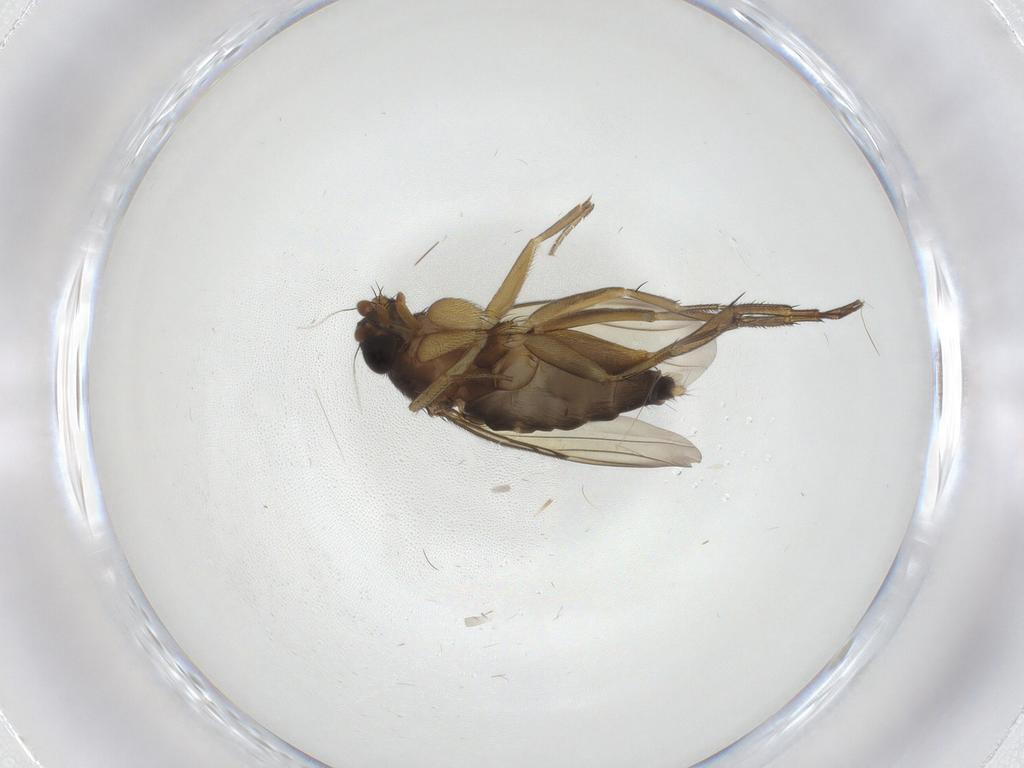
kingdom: Animalia
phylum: Arthropoda
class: Insecta
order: Diptera
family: Phoridae
